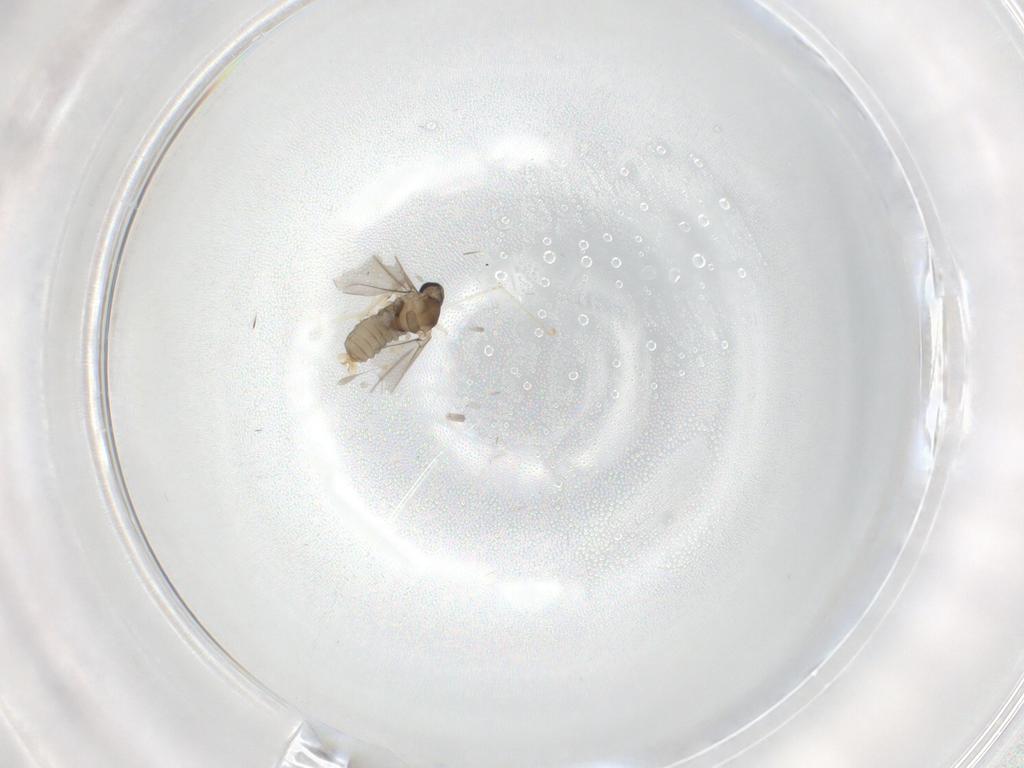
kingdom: Animalia
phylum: Arthropoda
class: Insecta
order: Diptera
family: Cecidomyiidae
